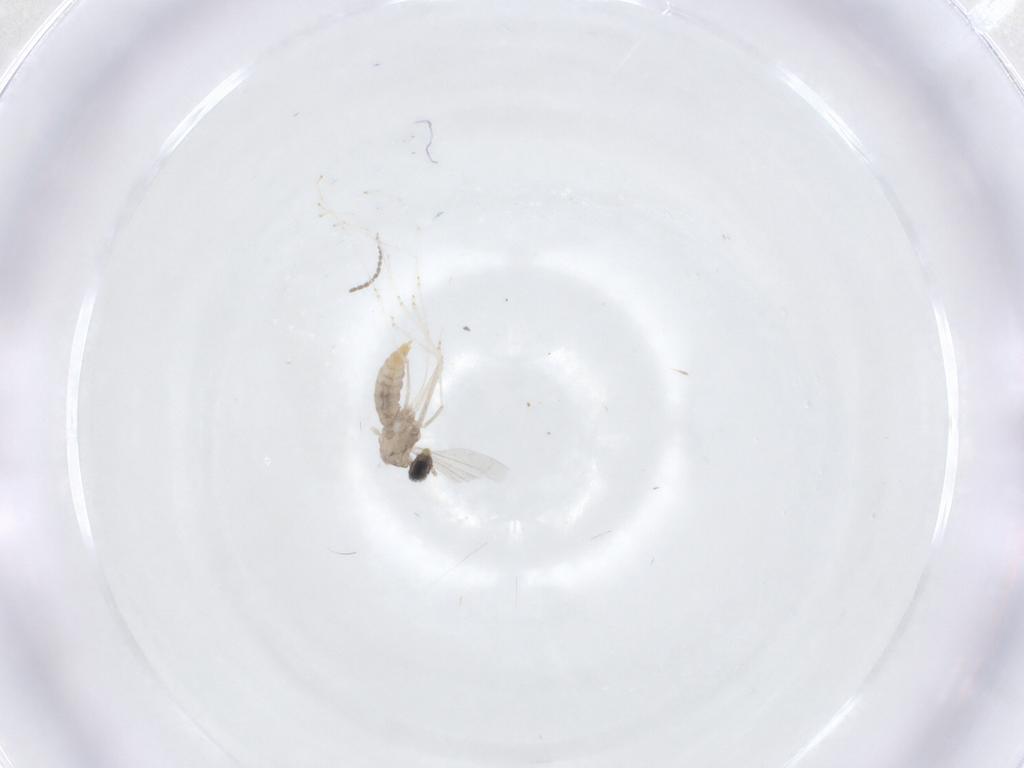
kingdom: Animalia
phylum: Arthropoda
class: Insecta
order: Diptera
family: Cecidomyiidae
